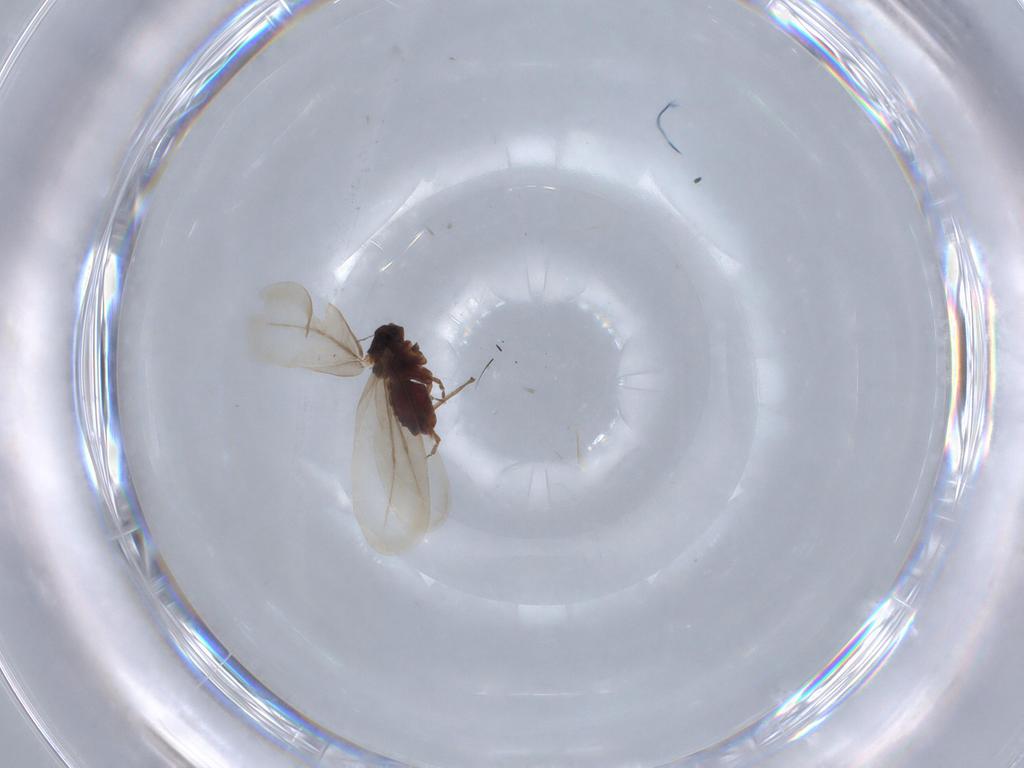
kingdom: Animalia
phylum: Arthropoda
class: Insecta
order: Hemiptera
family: Aleyrodidae
